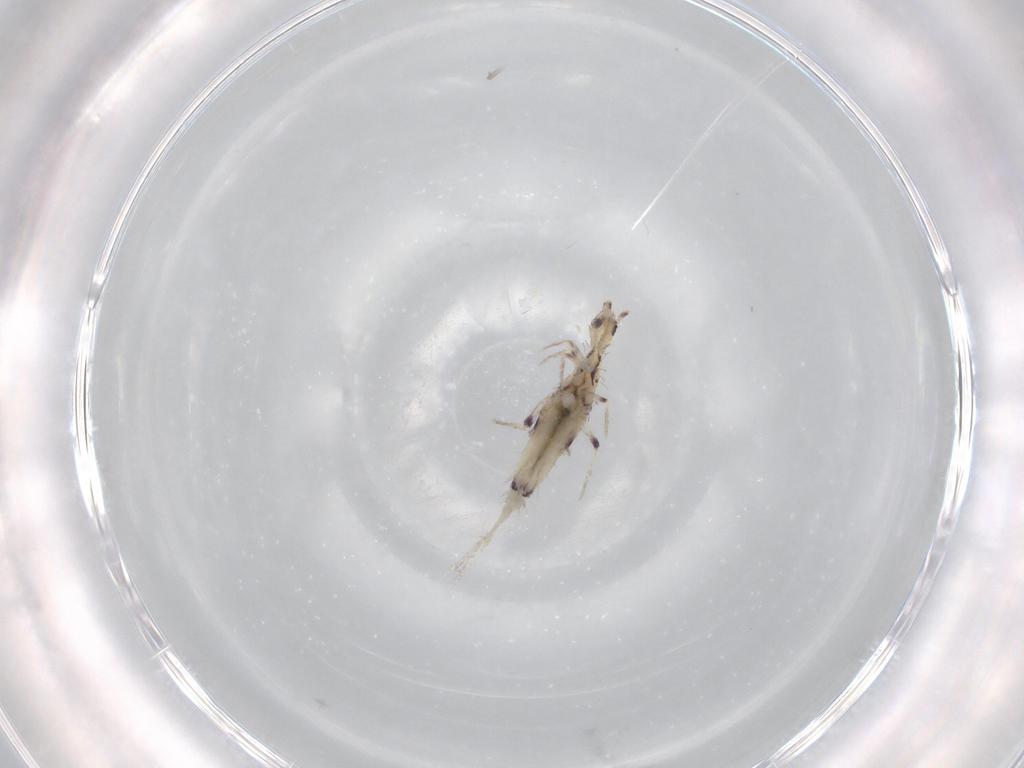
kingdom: Animalia
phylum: Arthropoda
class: Collembola
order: Poduromorpha
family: Hypogastruridae
